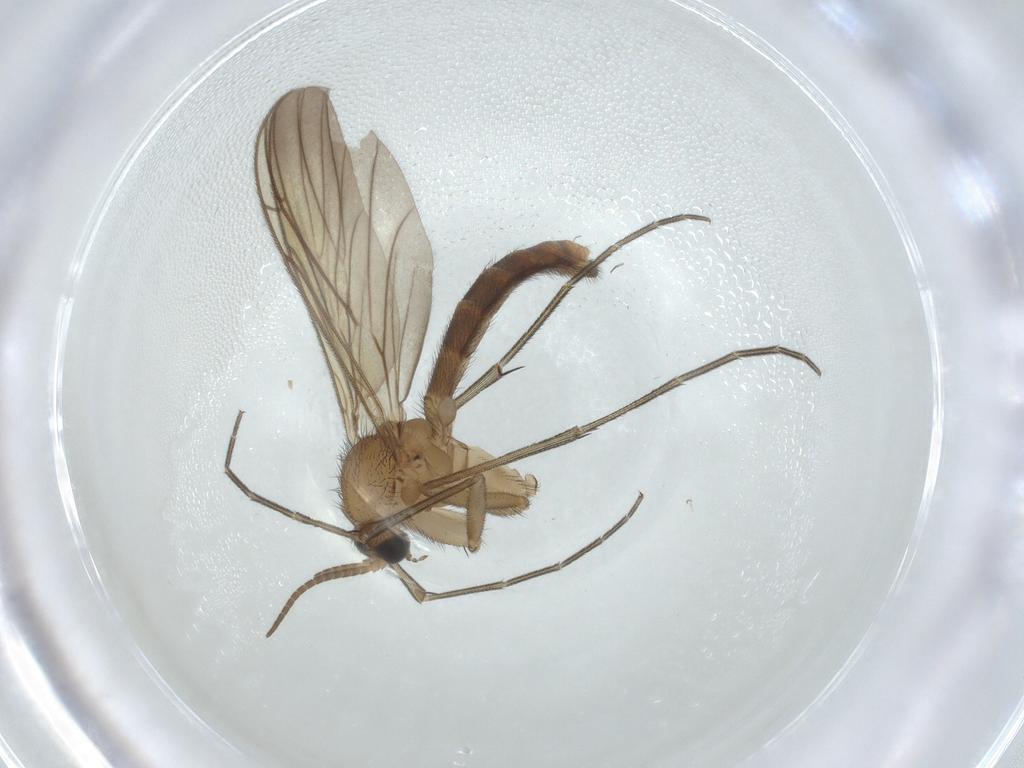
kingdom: Animalia
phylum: Arthropoda
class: Insecta
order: Diptera
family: Keroplatidae
